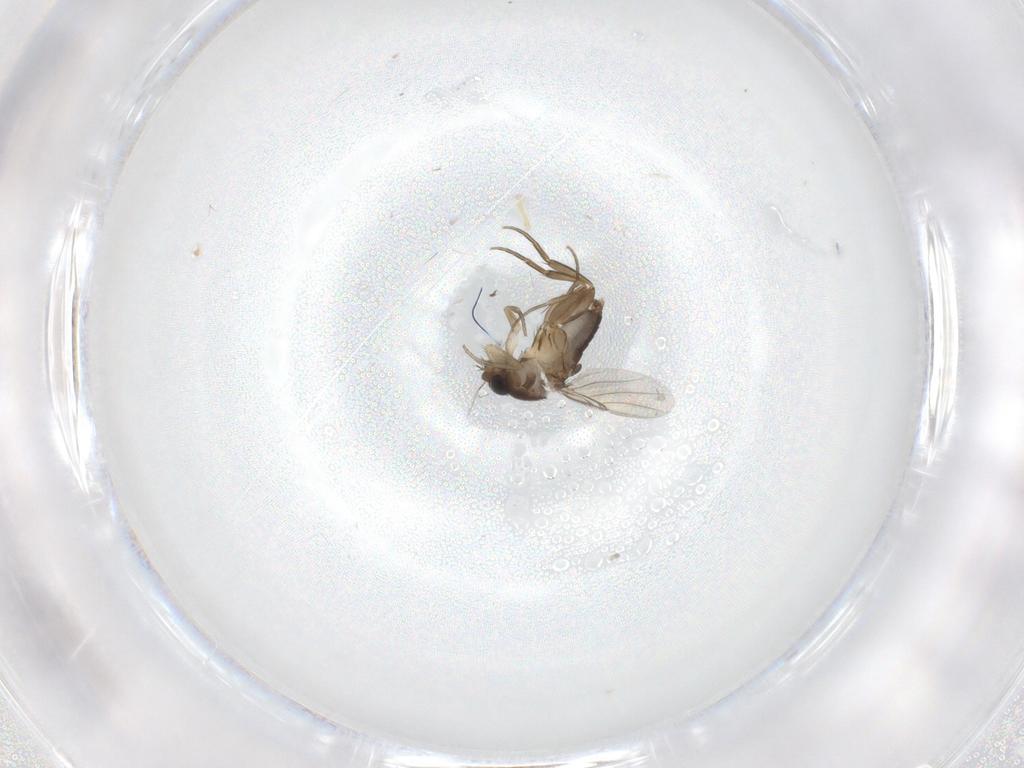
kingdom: Animalia
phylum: Arthropoda
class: Insecta
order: Diptera
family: Phoridae
